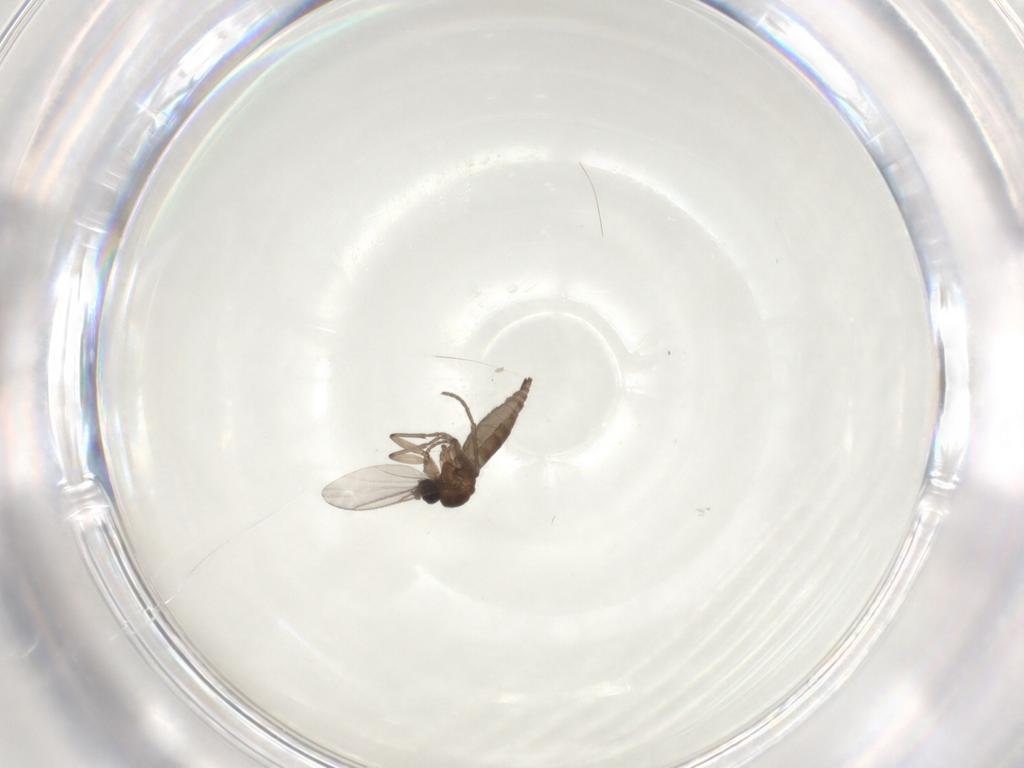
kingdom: Animalia
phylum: Arthropoda
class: Insecta
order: Diptera
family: Sciaridae
